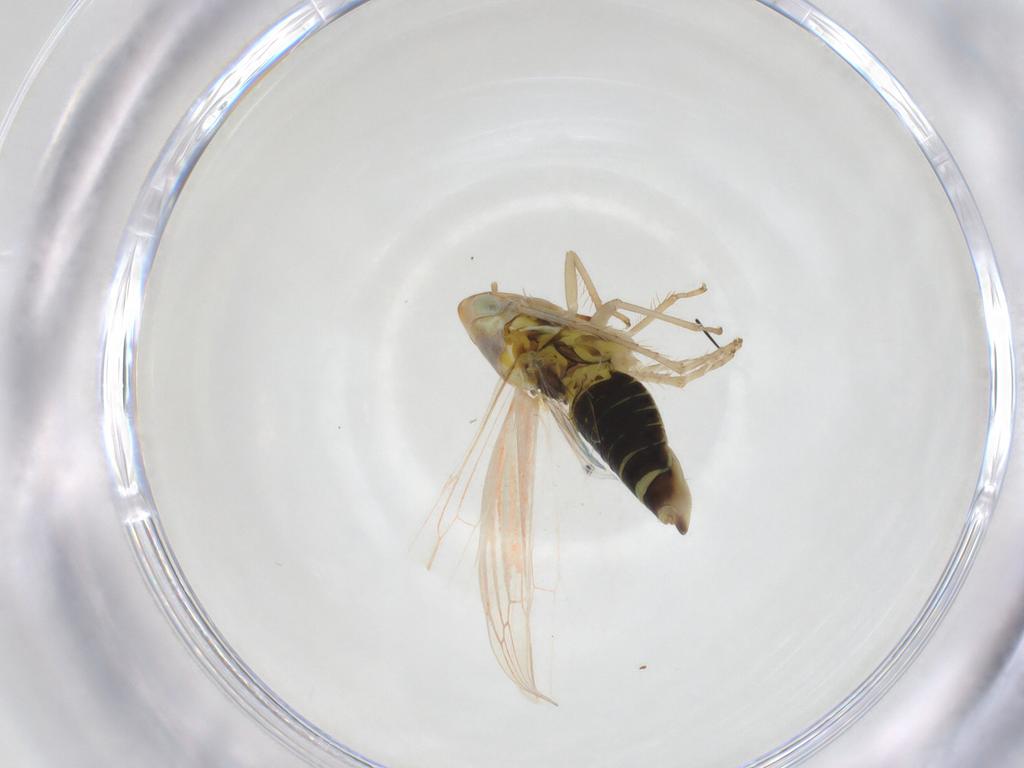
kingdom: Animalia
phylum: Arthropoda
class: Insecta
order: Hemiptera
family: Cicadellidae
